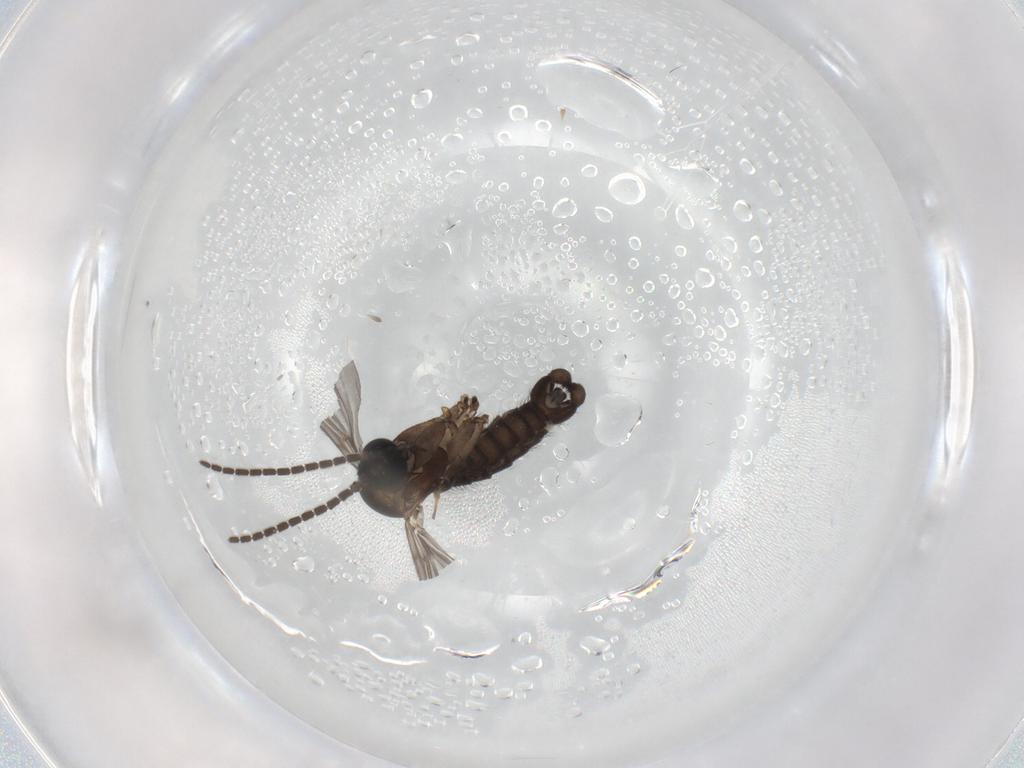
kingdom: Animalia
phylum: Arthropoda
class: Insecta
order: Diptera
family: Sciaridae
